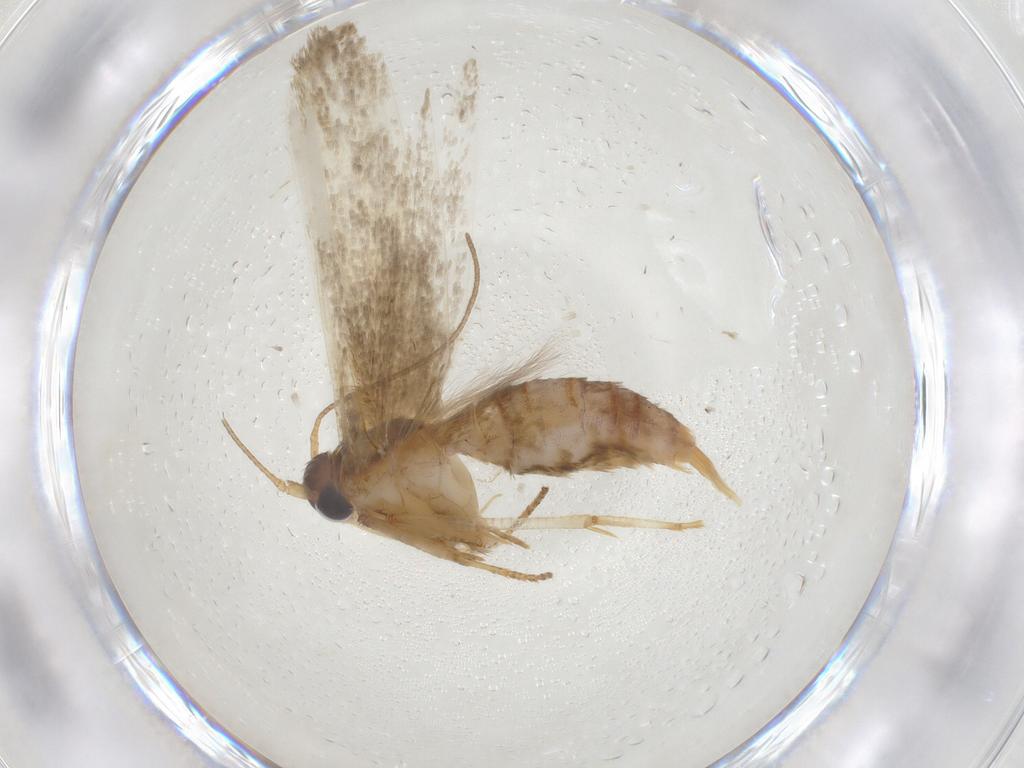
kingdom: Animalia
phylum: Arthropoda
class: Insecta
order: Lepidoptera
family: Blastobasidae
